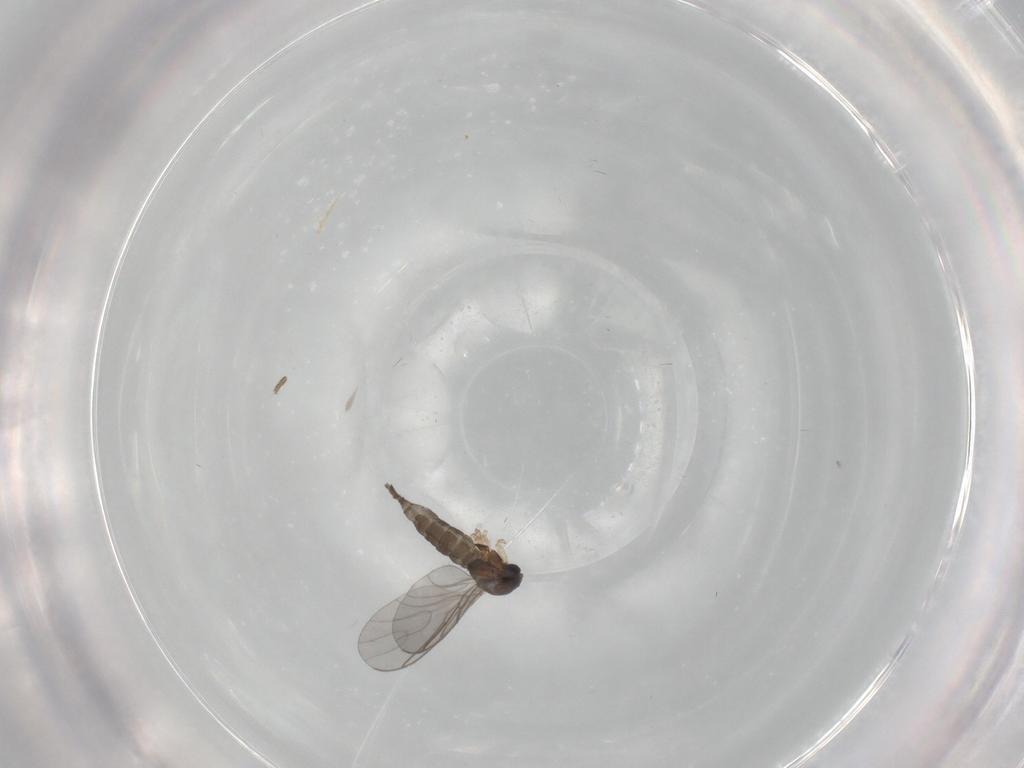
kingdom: Animalia
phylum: Arthropoda
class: Insecta
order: Diptera
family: Sciaridae
